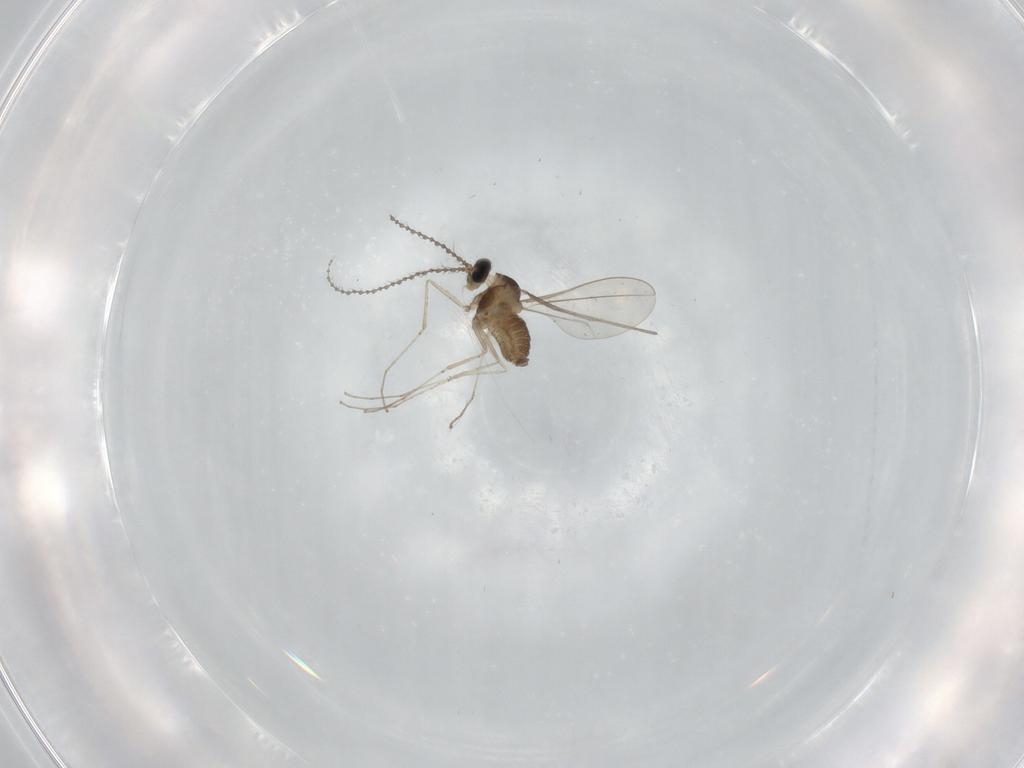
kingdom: Animalia
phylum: Arthropoda
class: Insecta
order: Diptera
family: Cecidomyiidae
